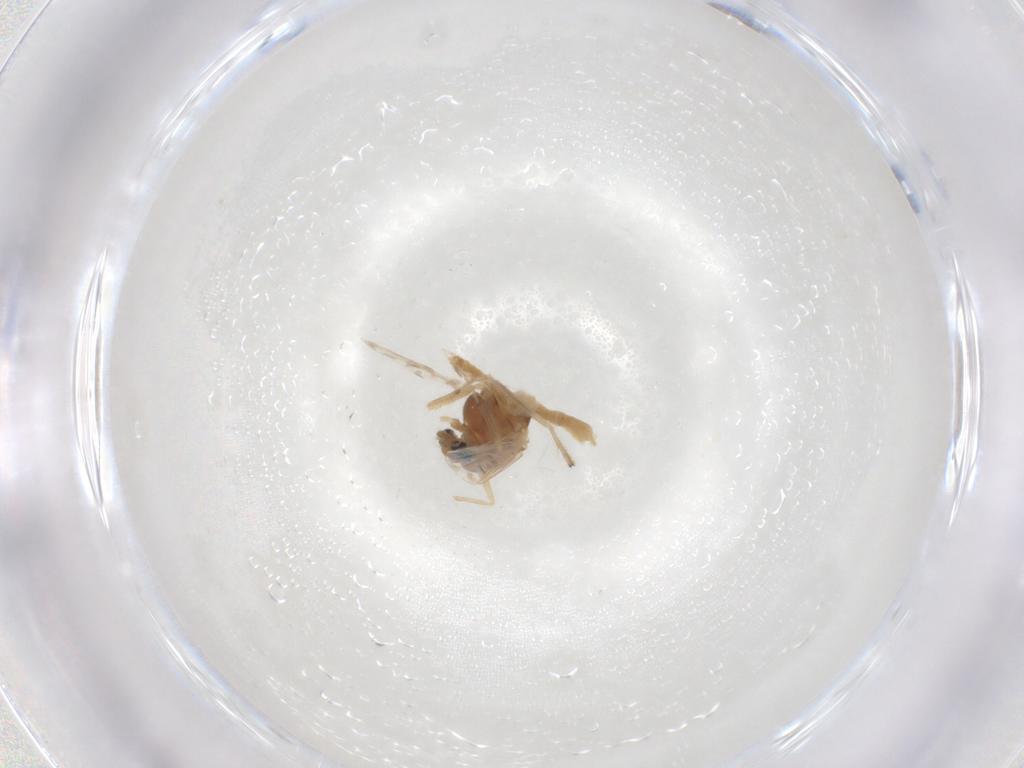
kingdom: Animalia
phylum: Arthropoda
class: Insecta
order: Diptera
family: Chironomidae
